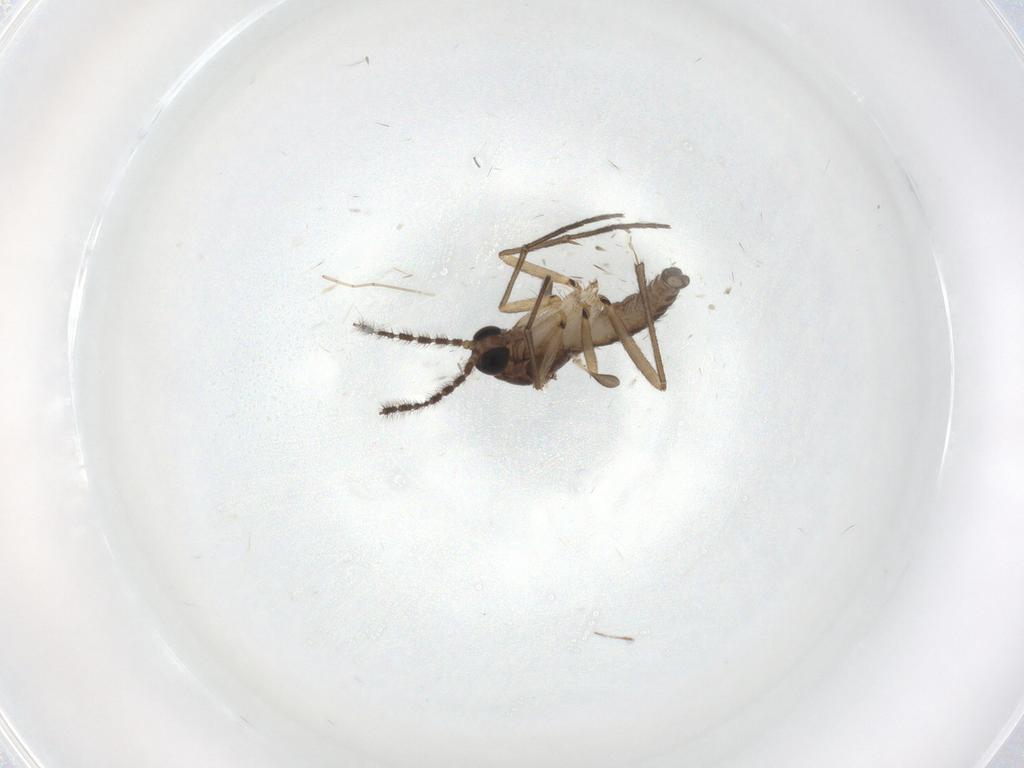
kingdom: Animalia
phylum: Arthropoda
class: Insecta
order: Diptera
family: Sciaridae
